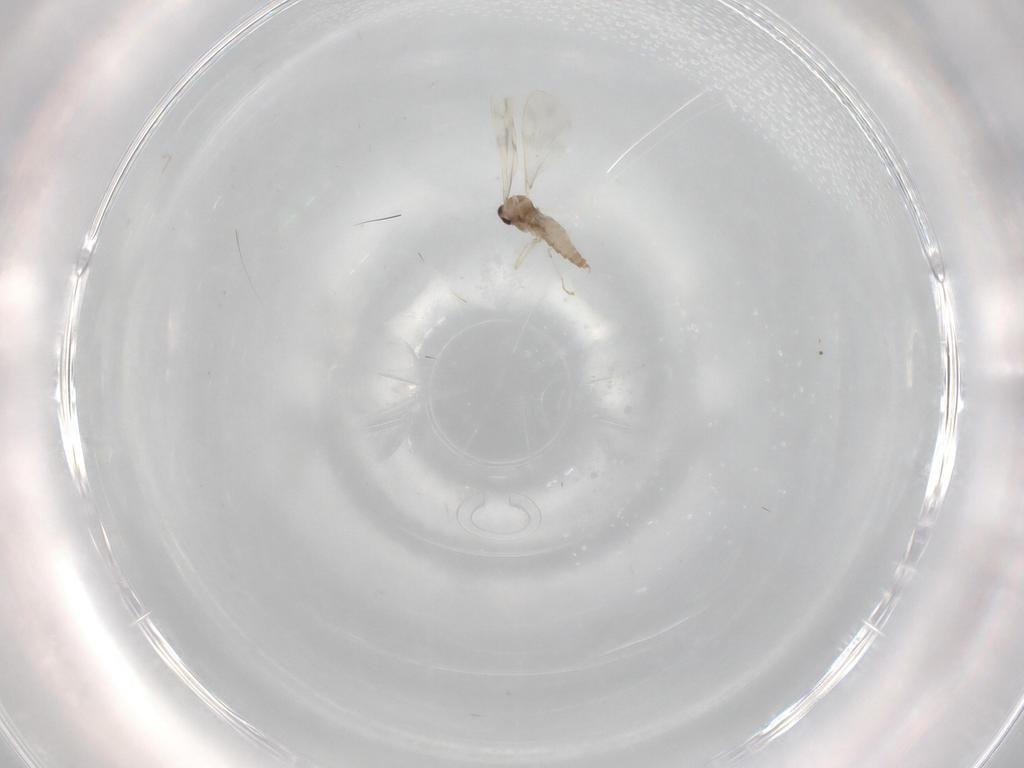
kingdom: Animalia
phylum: Arthropoda
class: Insecta
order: Diptera
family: Cecidomyiidae
